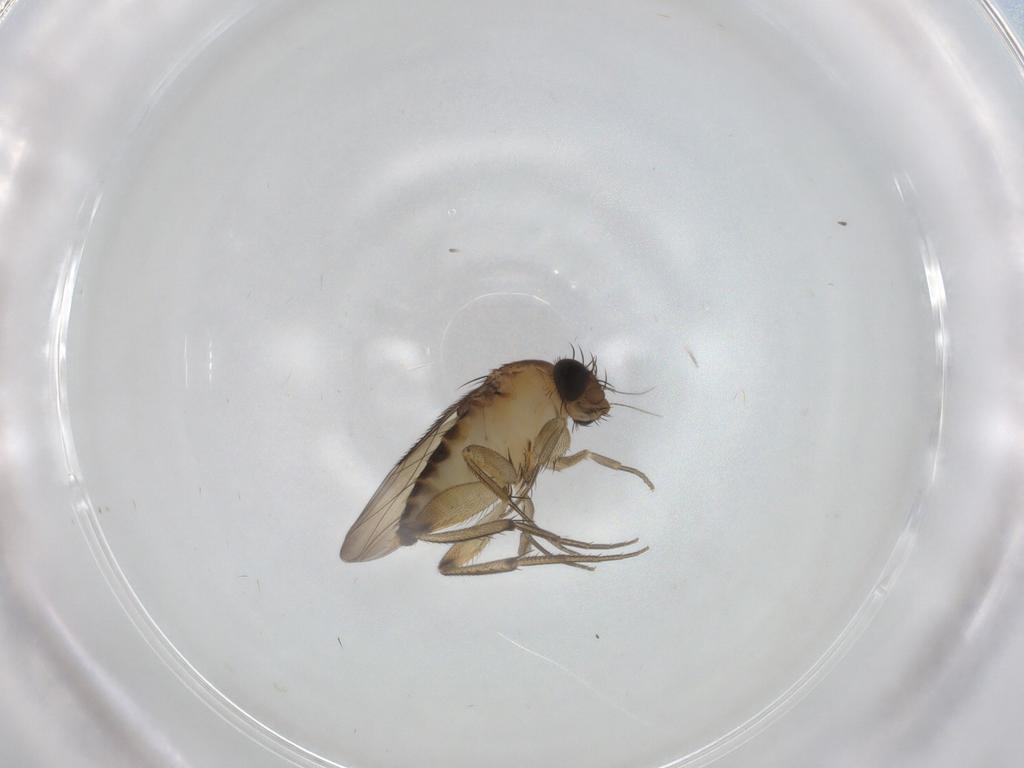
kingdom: Animalia
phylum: Arthropoda
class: Insecta
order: Diptera
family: Phoridae
